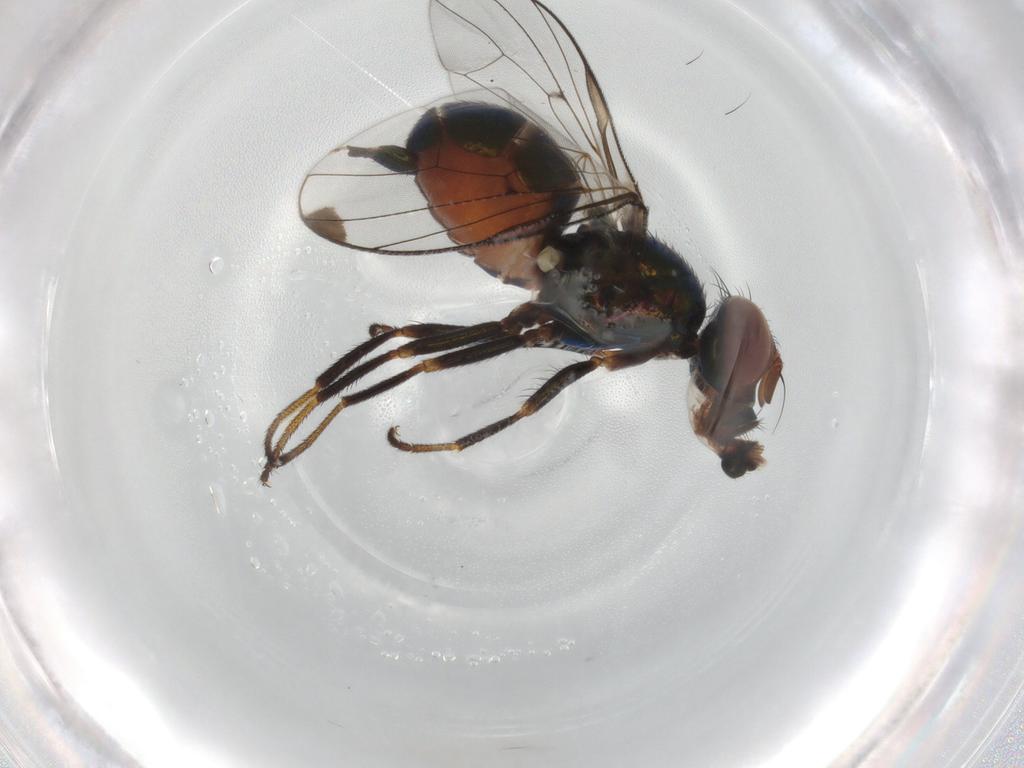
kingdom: Animalia
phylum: Arthropoda
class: Insecta
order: Diptera
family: Platystomatidae
